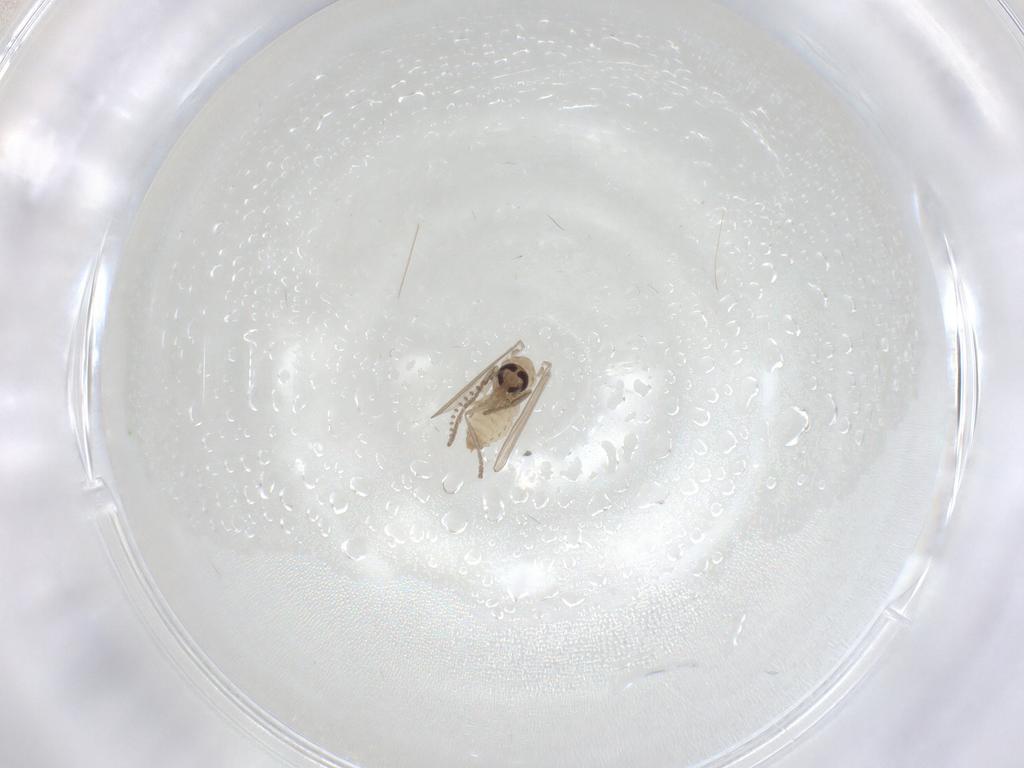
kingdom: Animalia
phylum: Arthropoda
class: Insecta
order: Diptera
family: Psychodidae
